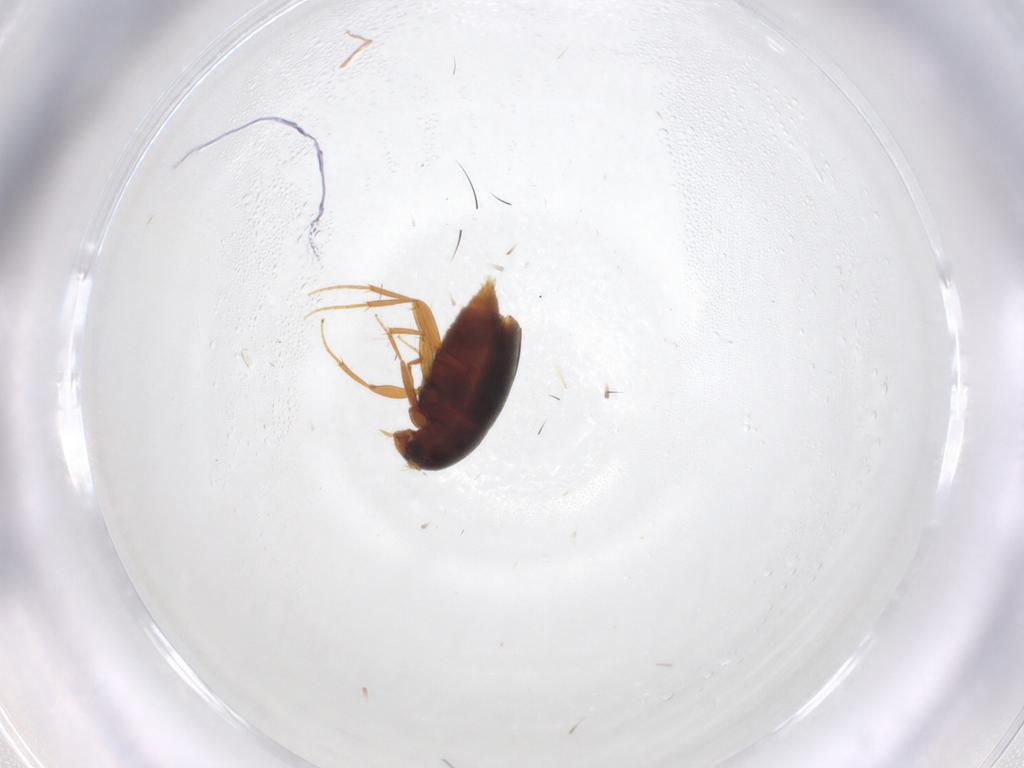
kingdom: Animalia
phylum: Arthropoda
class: Insecta
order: Coleoptera
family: Staphylinidae
